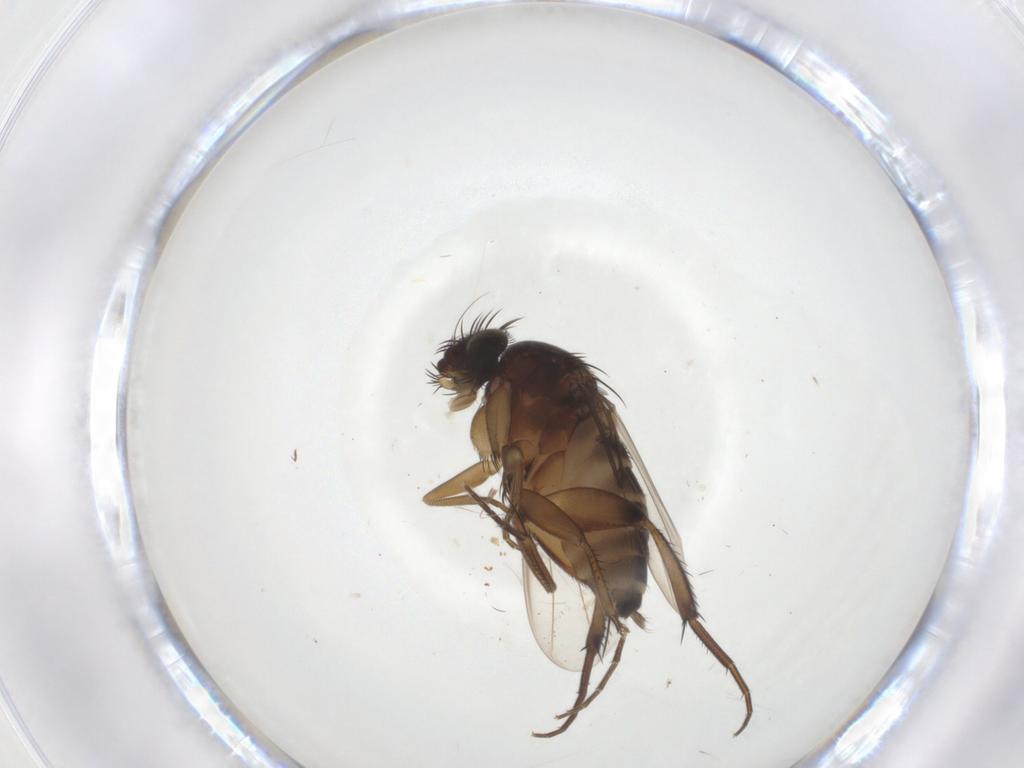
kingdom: Animalia
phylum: Arthropoda
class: Insecta
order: Diptera
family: Phoridae
